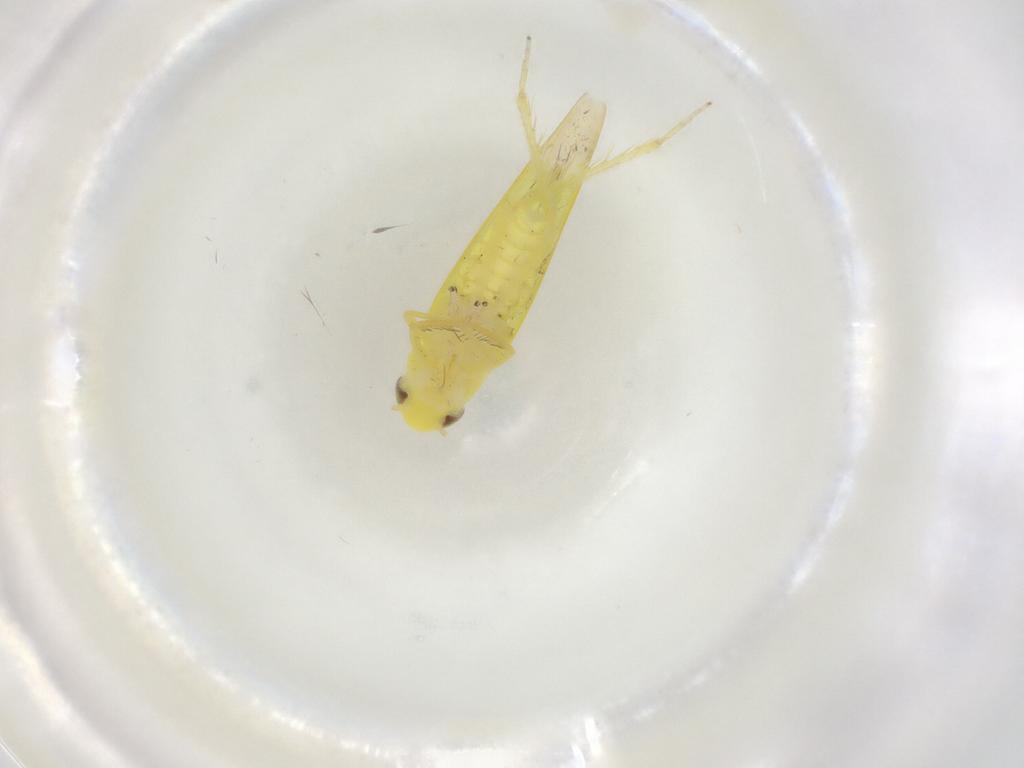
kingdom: Animalia
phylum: Arthropoda
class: Insecta
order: Hemiptera
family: Cicadellidae
